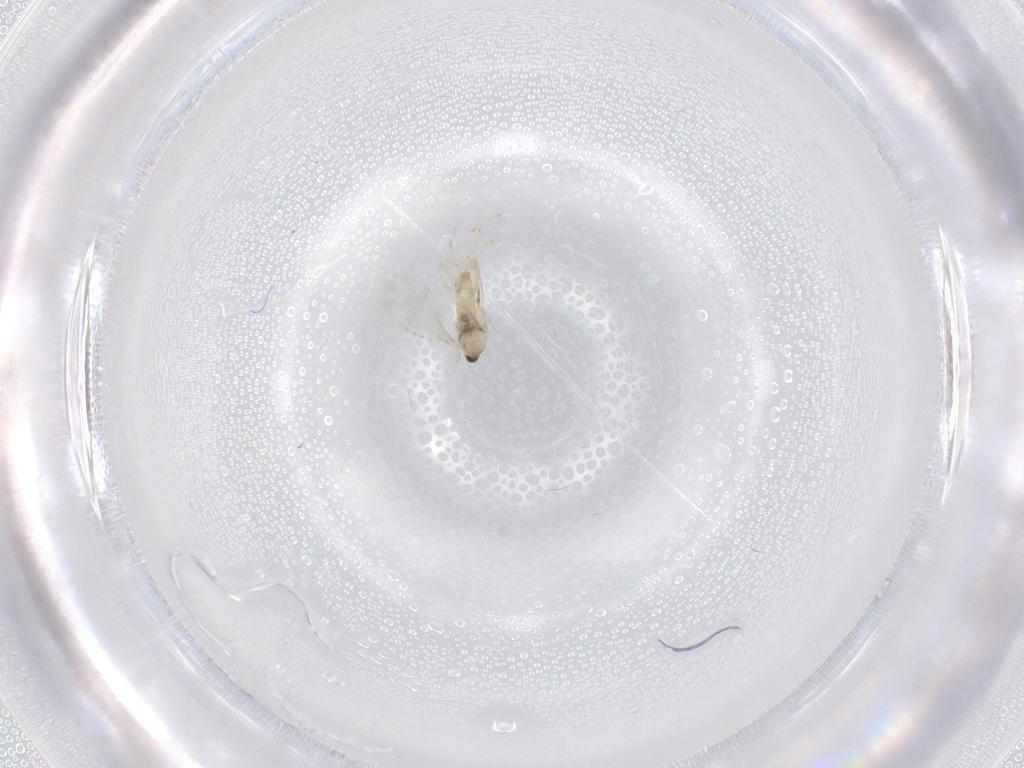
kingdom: Animalia
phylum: Arthropoda
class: Insecta
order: Diptera
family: Cecidomyiidae
